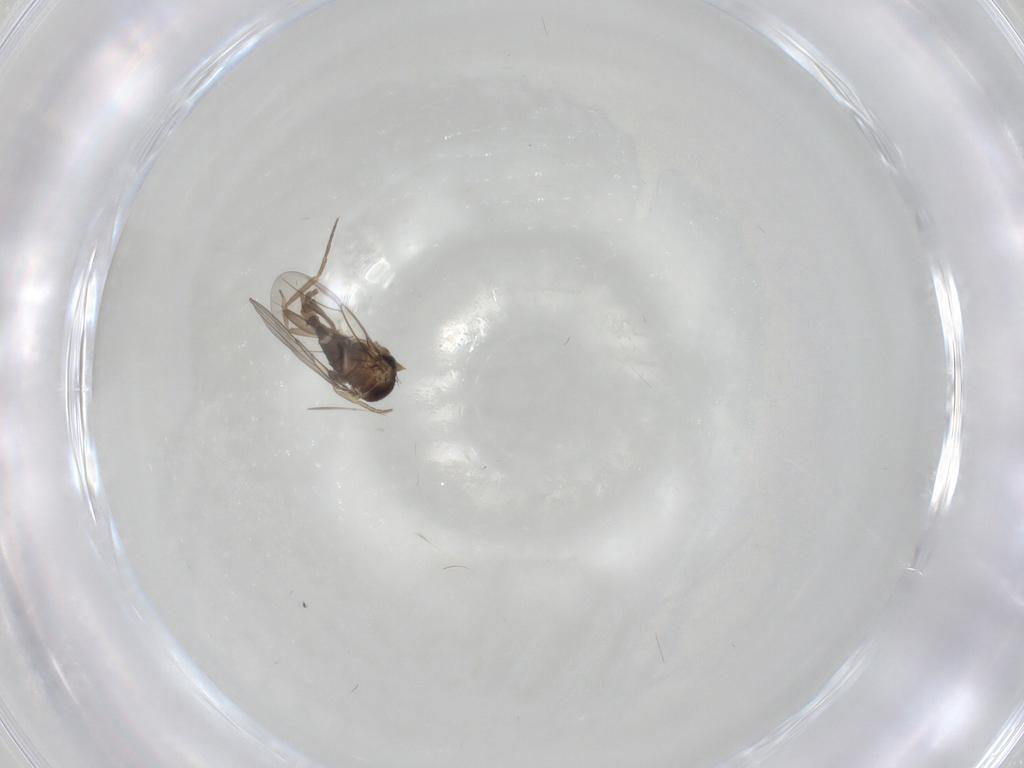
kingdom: Animalia
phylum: Arthropoda
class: Insecta
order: Diptera
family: Phoridae
